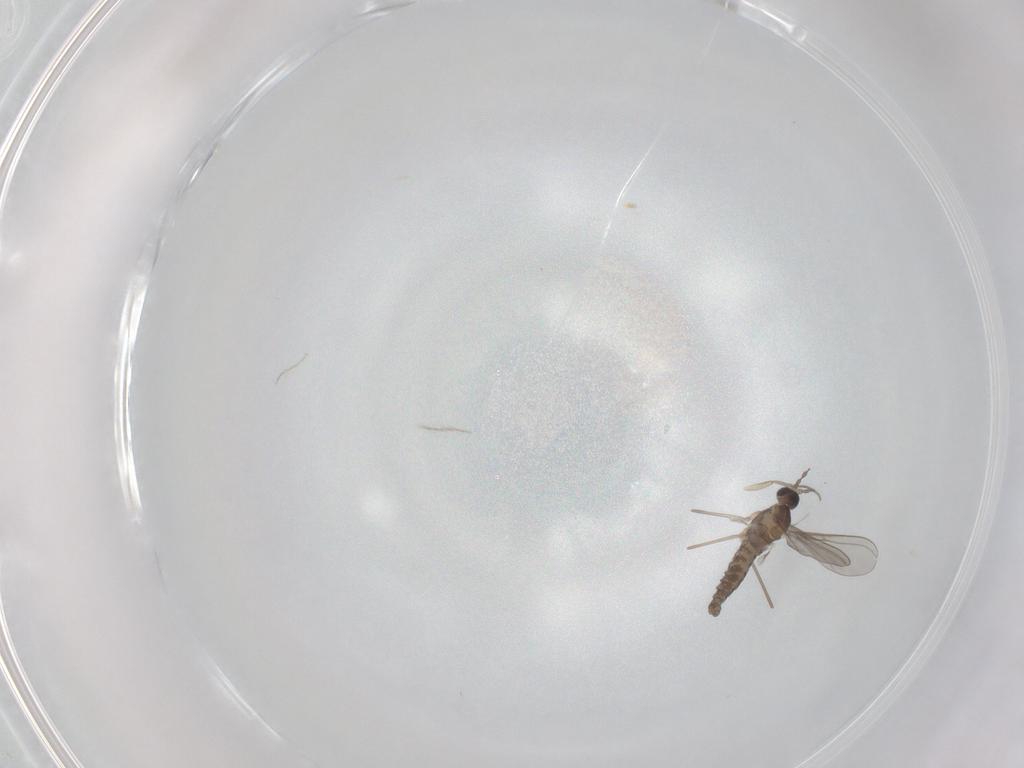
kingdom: Animalia
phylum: Arthropoda
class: Insecta
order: Diptera
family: Cecidomyiidae
